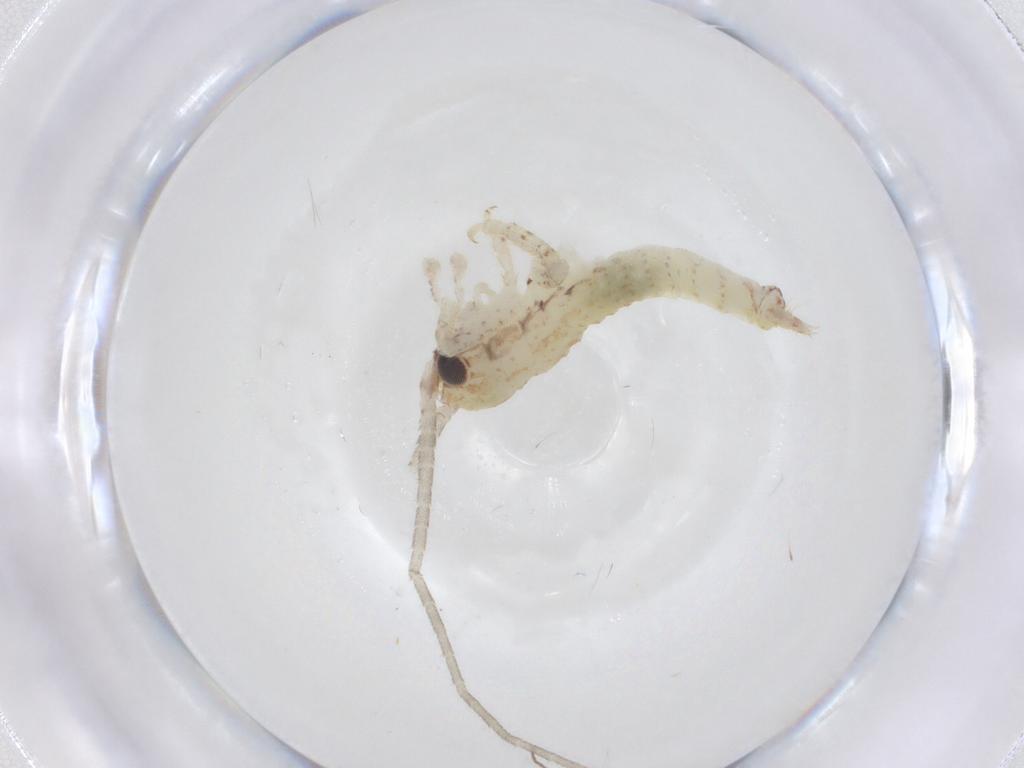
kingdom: Animalia
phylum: Arthropoda
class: Insecta
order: Orthoptera
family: Gryllidae
